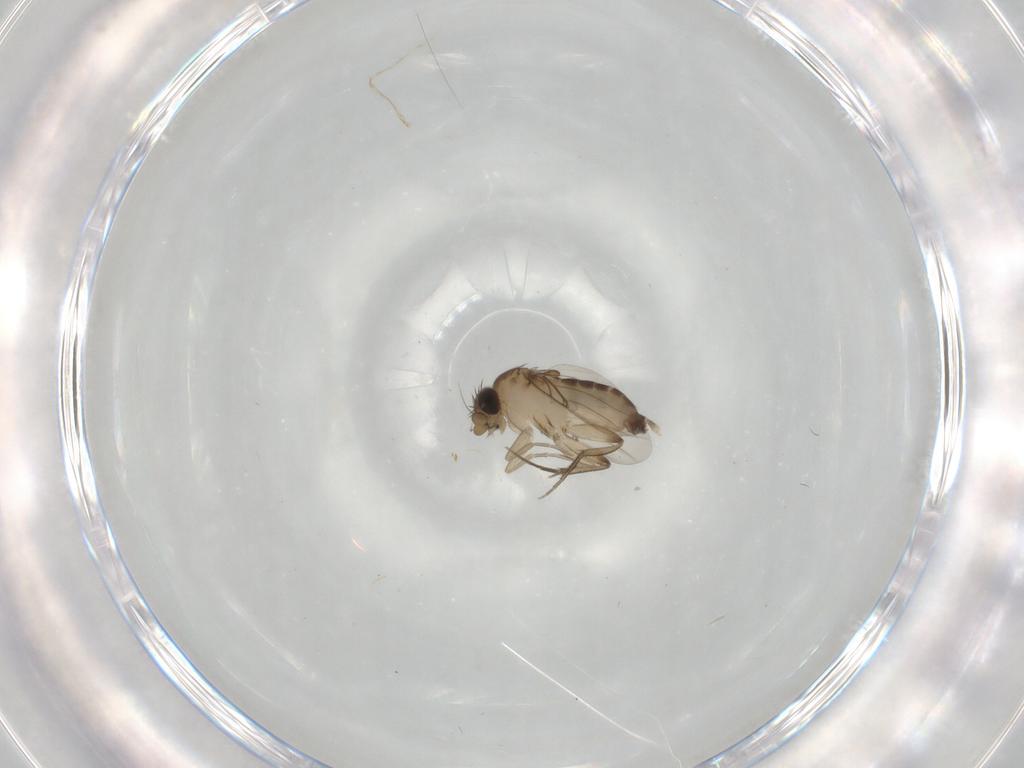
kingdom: Animalia
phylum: Arthropoda
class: Insecta
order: Diptera
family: Phoridae
